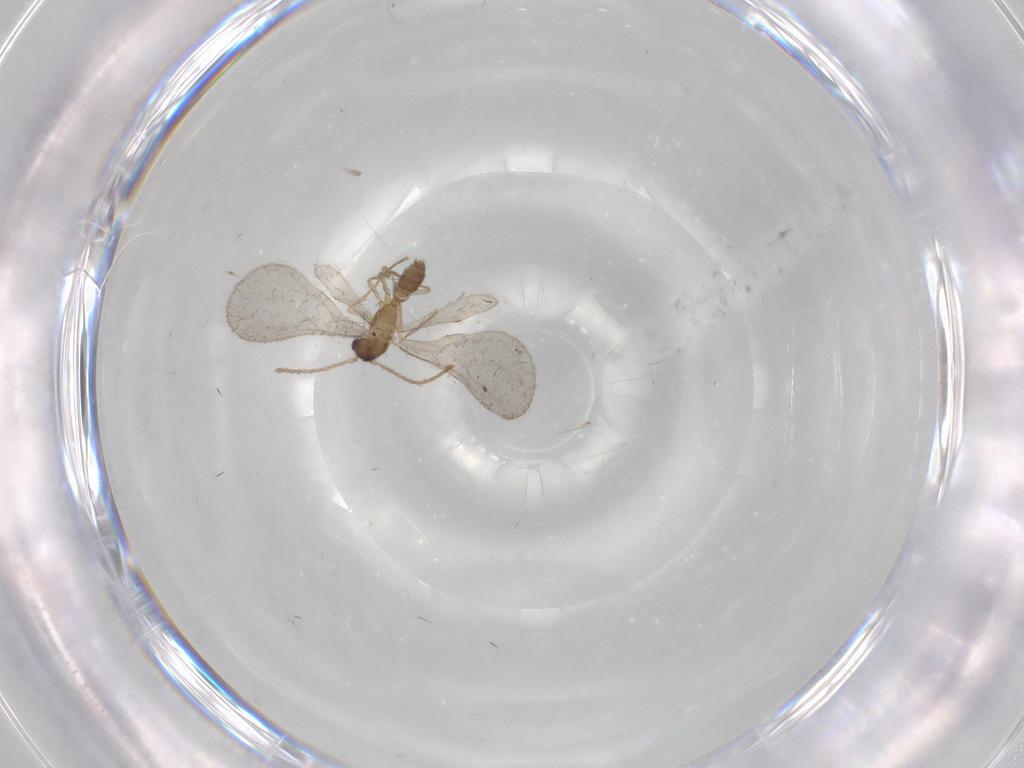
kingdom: Animalia
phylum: Arthropoda
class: Insecta
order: Hymenoptera
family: Formicidae
